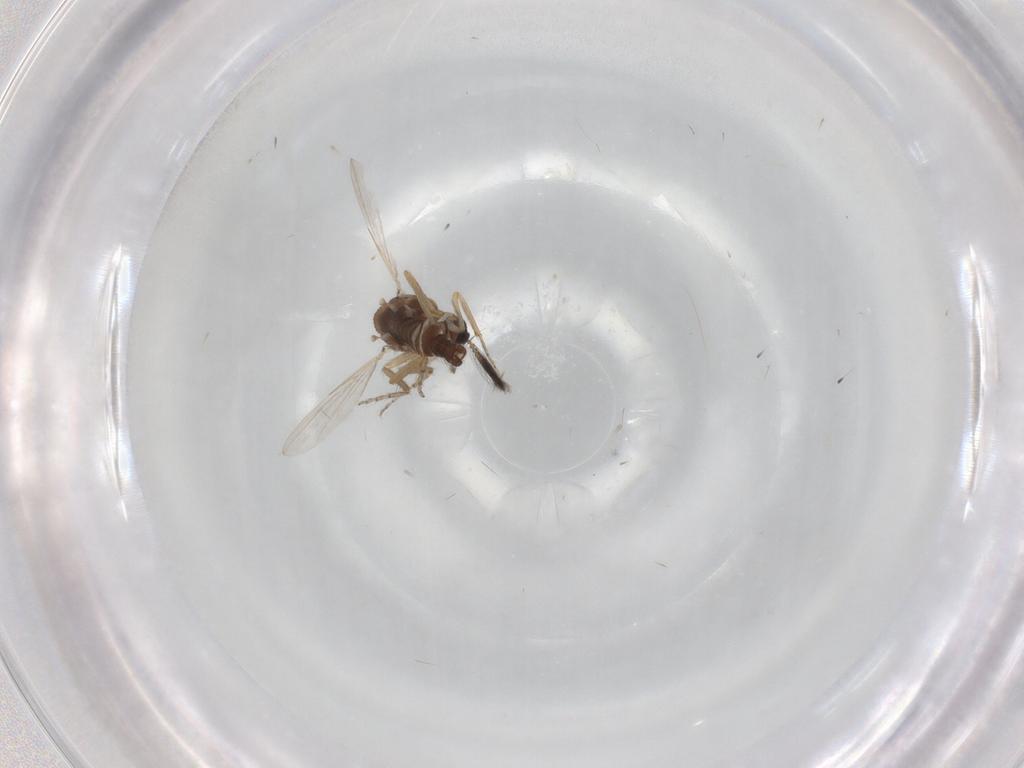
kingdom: Animalia
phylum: Arthropoda
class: Insecta
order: Diptera
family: Ceratopogonidae
